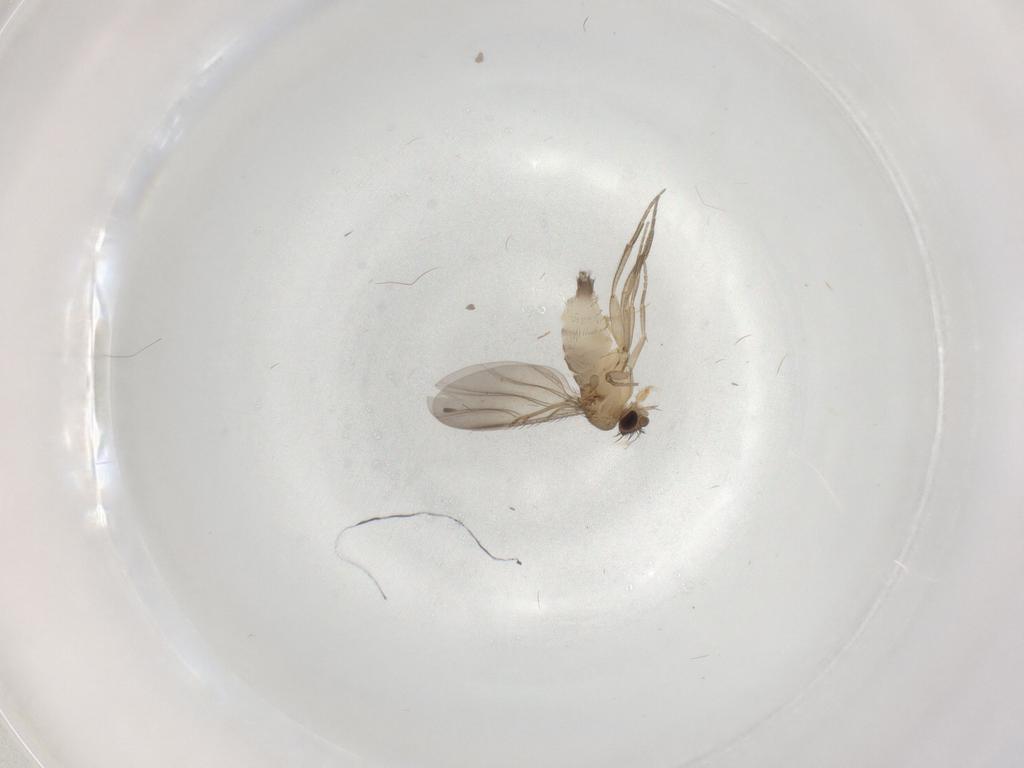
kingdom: Animalia
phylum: Arthropoda
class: Insecta
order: Diptera
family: Phoridae
